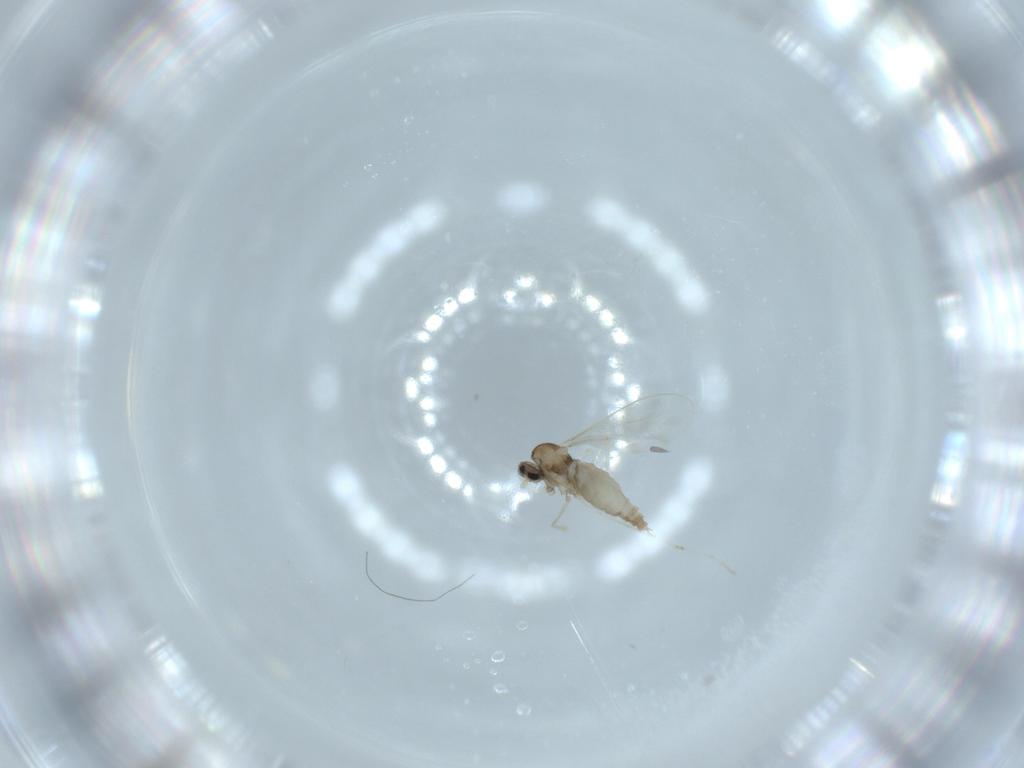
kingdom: Animalia
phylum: Arthropoda
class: Insecta
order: Diptera
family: Cecidomyiidae
